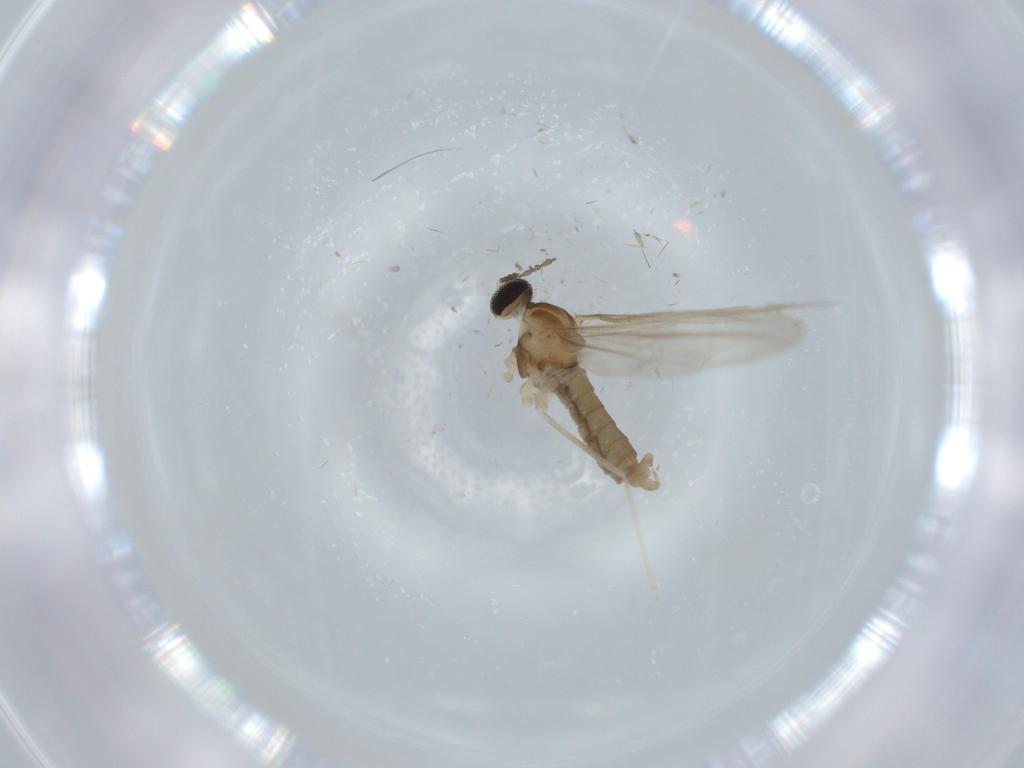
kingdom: Animalia
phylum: Arthropoda
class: Insecta
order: Diptera
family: Cecidomyiidae
